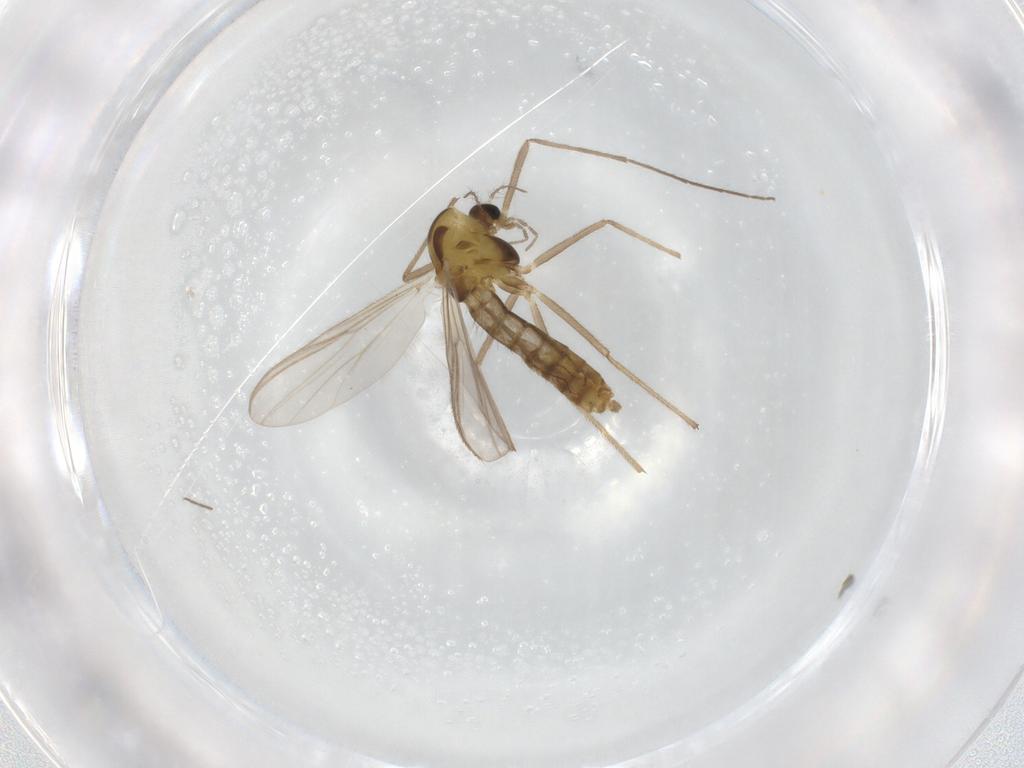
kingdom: Animalia
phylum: Arthropoda
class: Insecta
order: Diptera
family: Chironomidae
